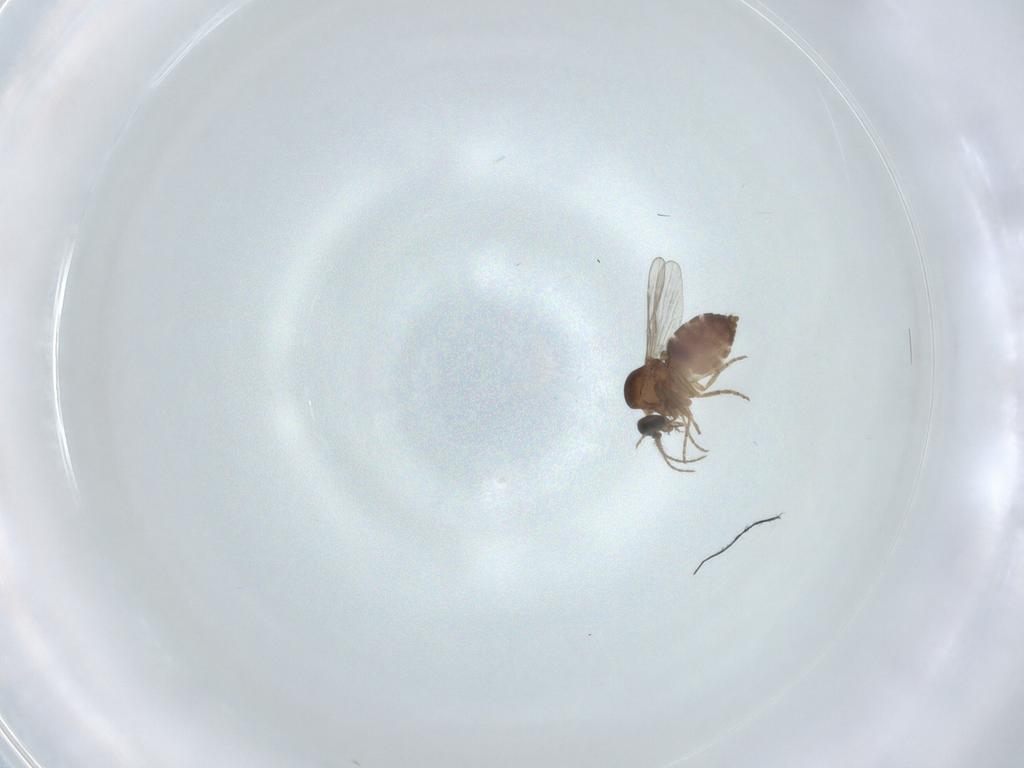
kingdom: Animalia
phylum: Arthropoda
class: Insecta
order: Diptera
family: Ceratopogonidae
